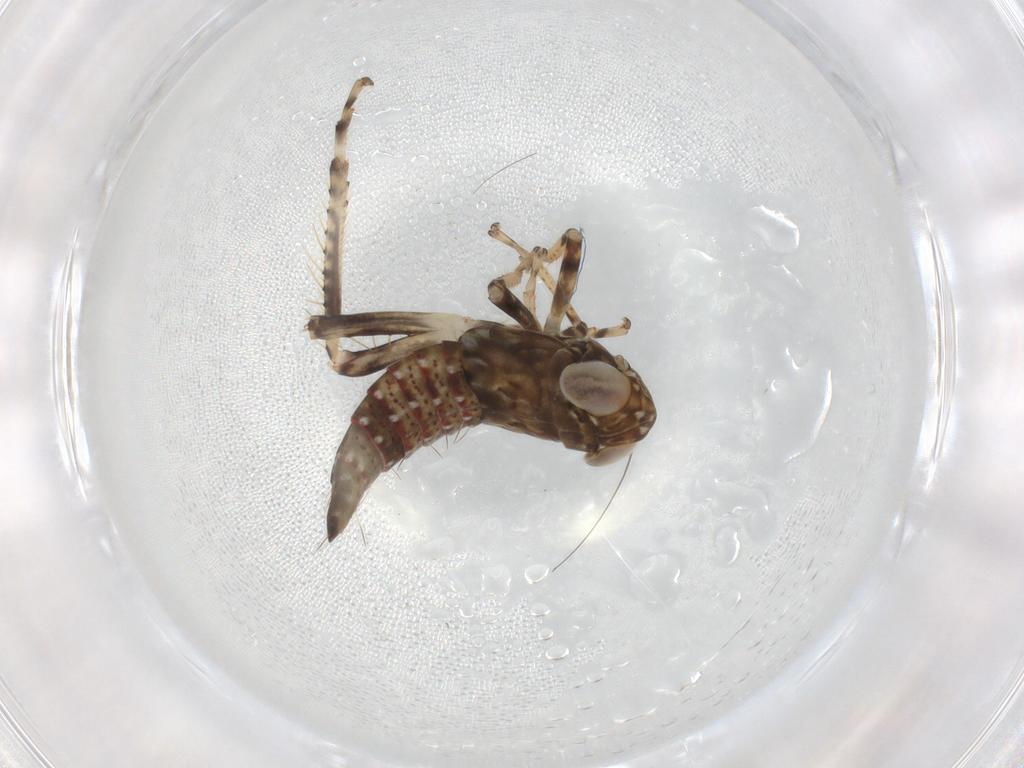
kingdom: Animalia
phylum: Arthropoda
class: Insecta
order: Hemiptera
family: Cicadellidae
